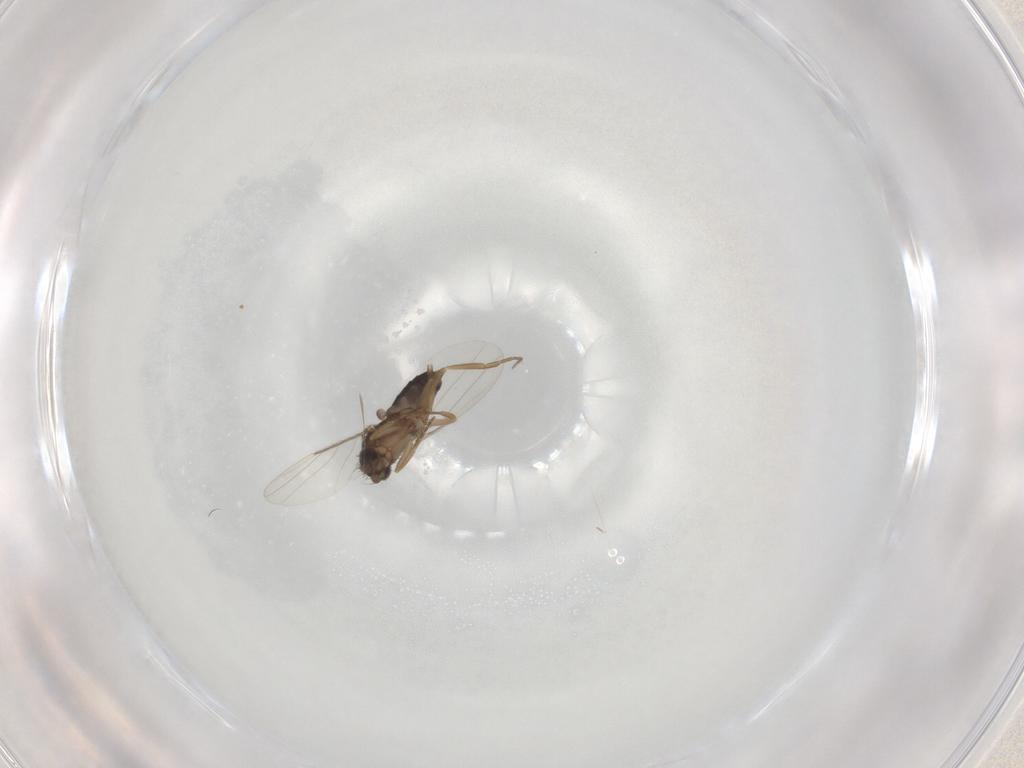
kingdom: Animalia
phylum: Arthropoda
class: Insecta
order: Diptera
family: Phoridae
